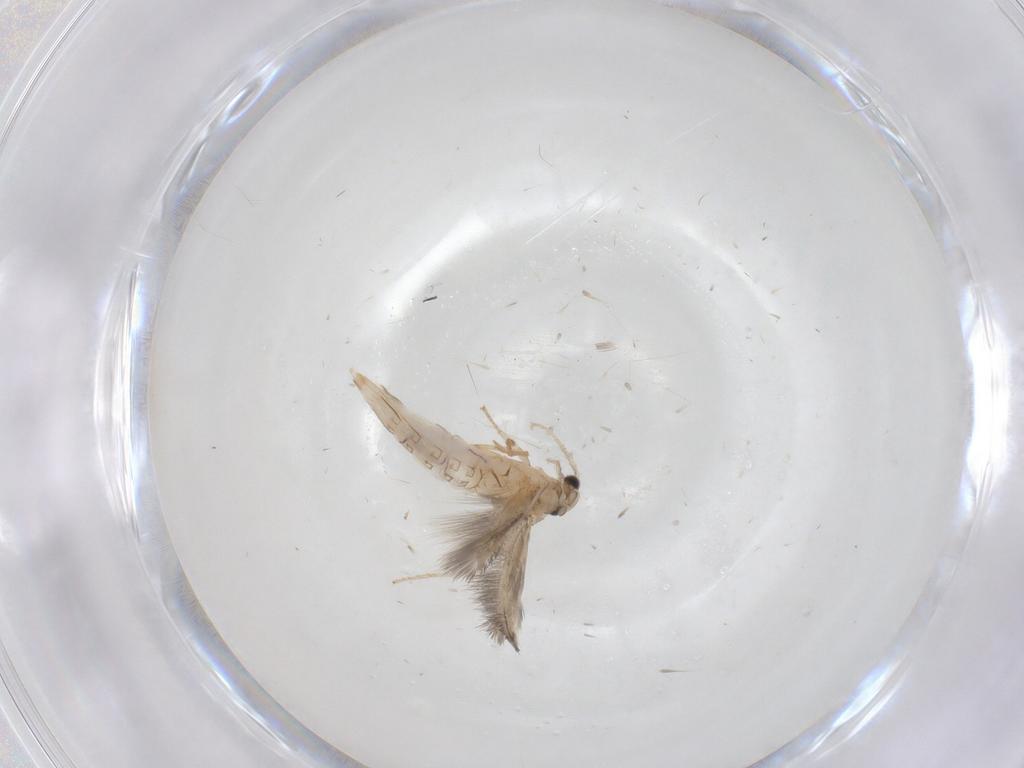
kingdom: Animalia
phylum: Arthropoda
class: Insecta
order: Trichoptera
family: Hydroptilidae
